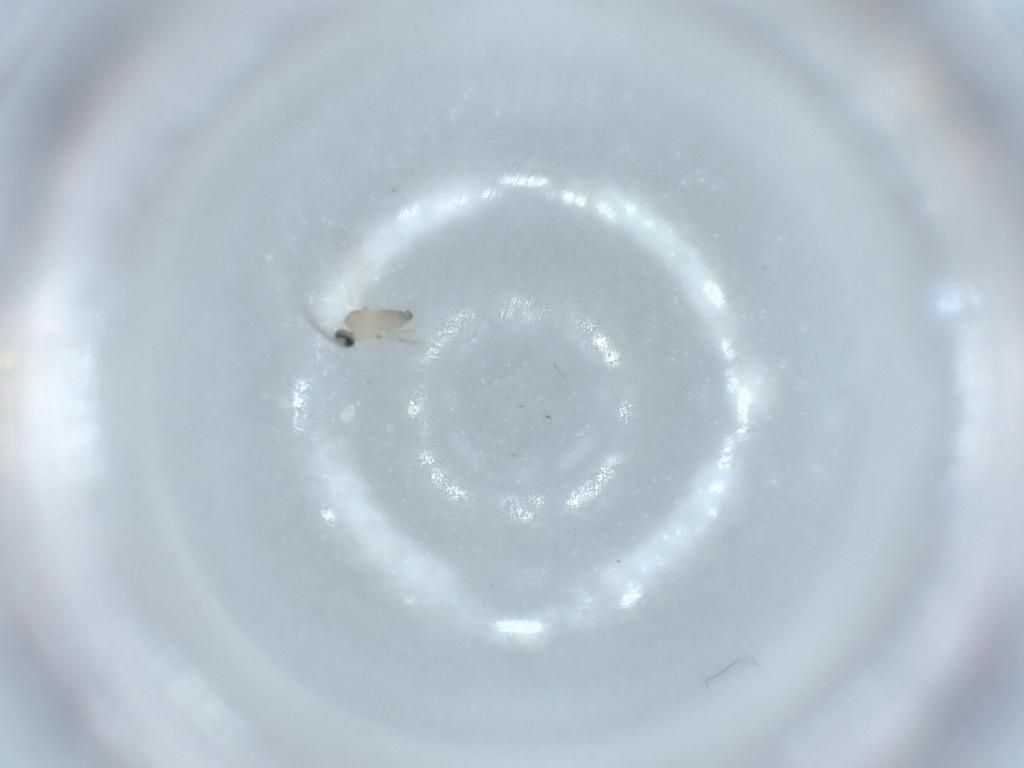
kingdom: Animalia
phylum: Arthropoda
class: Insecta
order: Diptera
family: Cecidomyiidae
